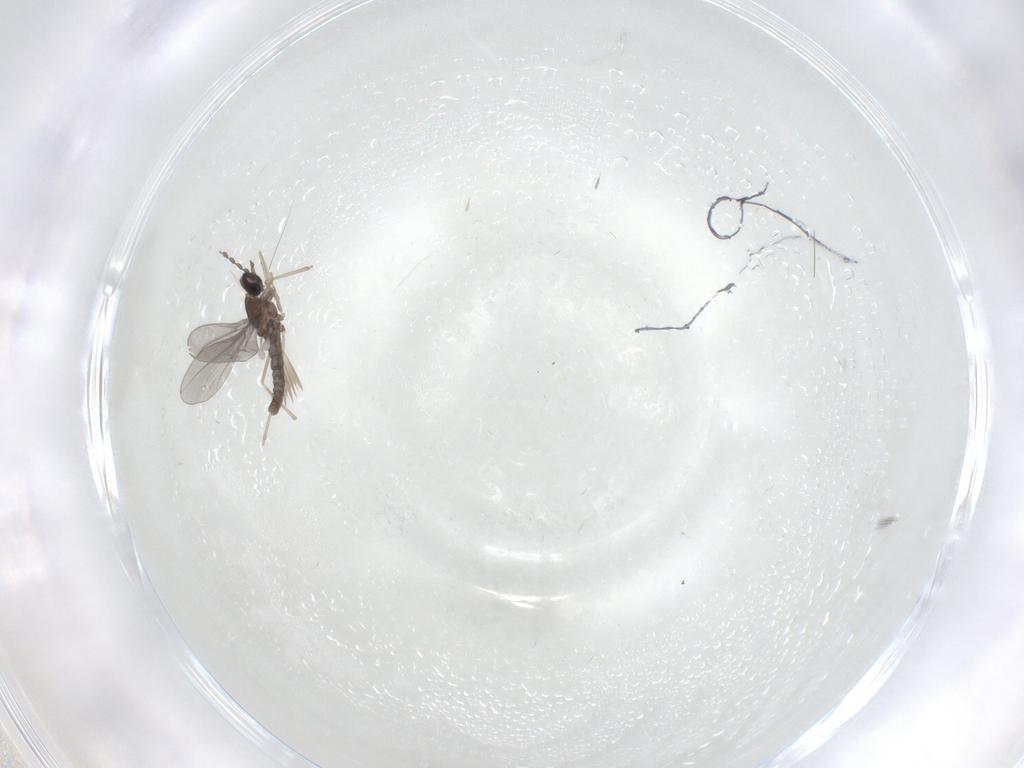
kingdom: Animalia
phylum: Arthropoda
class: Insecta
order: Diptera
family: Cecidomyiidae
